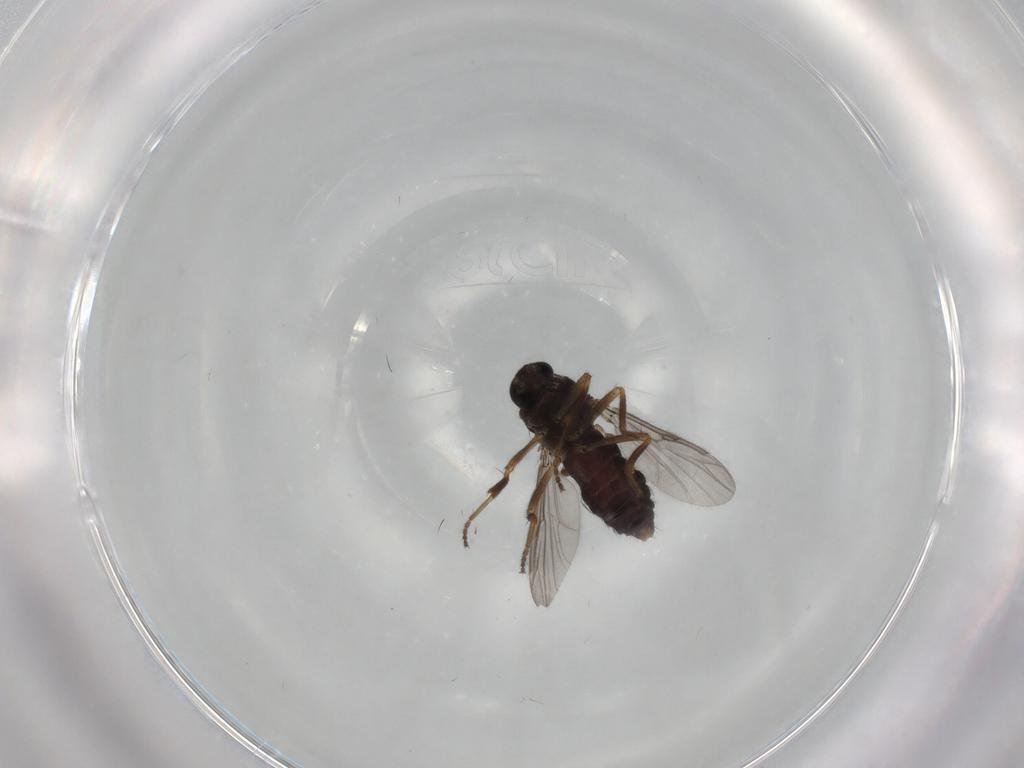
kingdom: Animalia
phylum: Arthropoda
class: Insecta
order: Diptera
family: Ceratopogonidae
